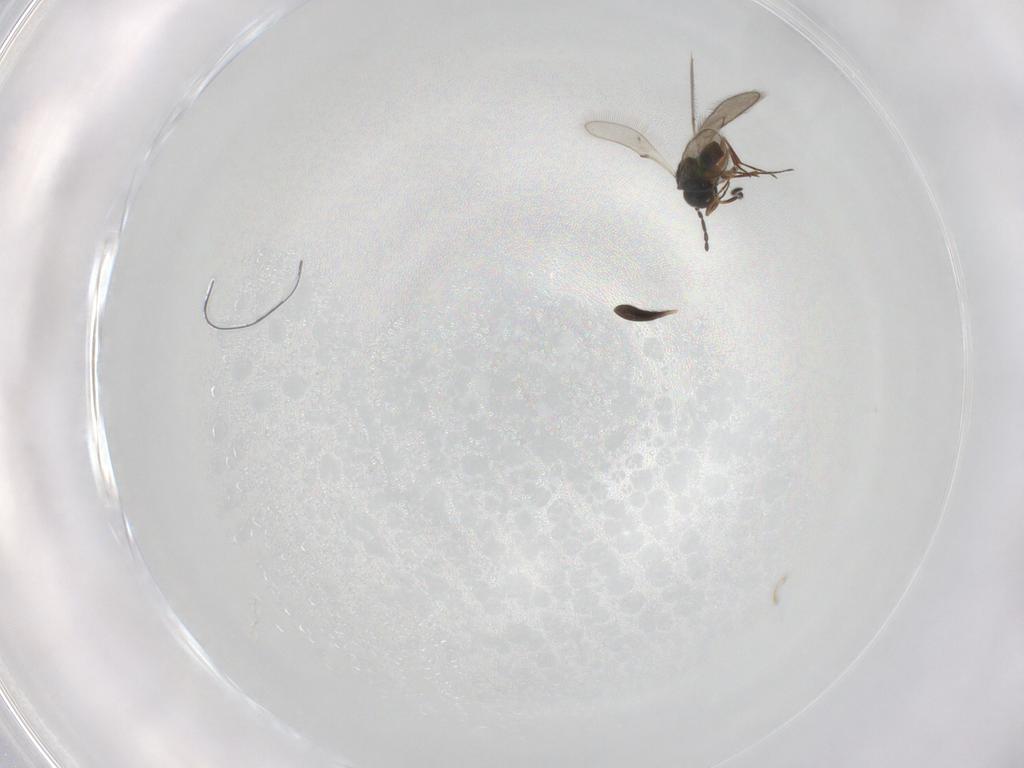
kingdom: Animalia
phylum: Arthropoda
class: Insecta
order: Hymenoptera
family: Scelionidae
